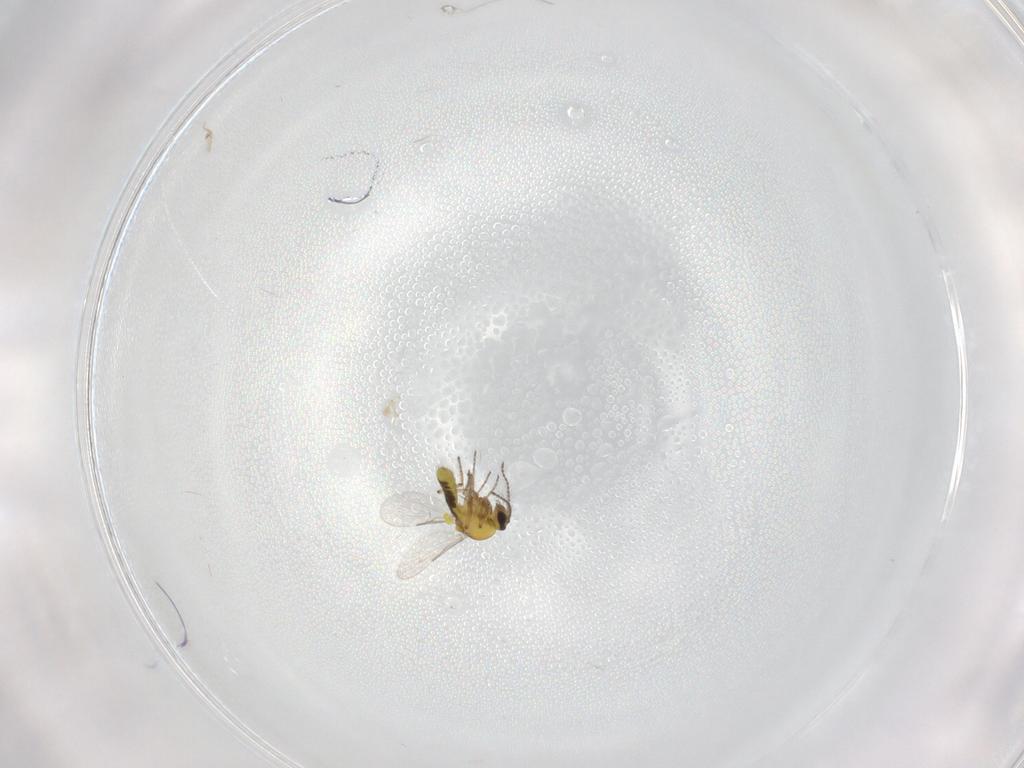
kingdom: Animalia
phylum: Arthropoda
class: Insecta
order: Diptera
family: Ceratopogonidae
